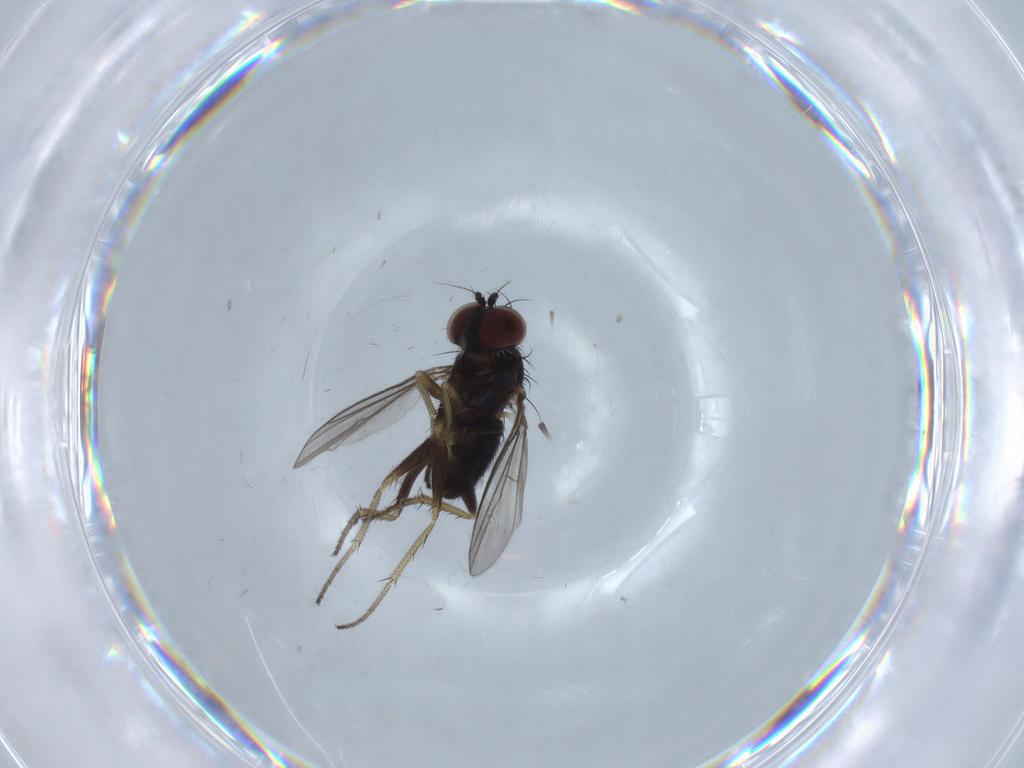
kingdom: Animalia
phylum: Arthropoda
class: Insecta
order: Diptera
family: Dolichopodidae
